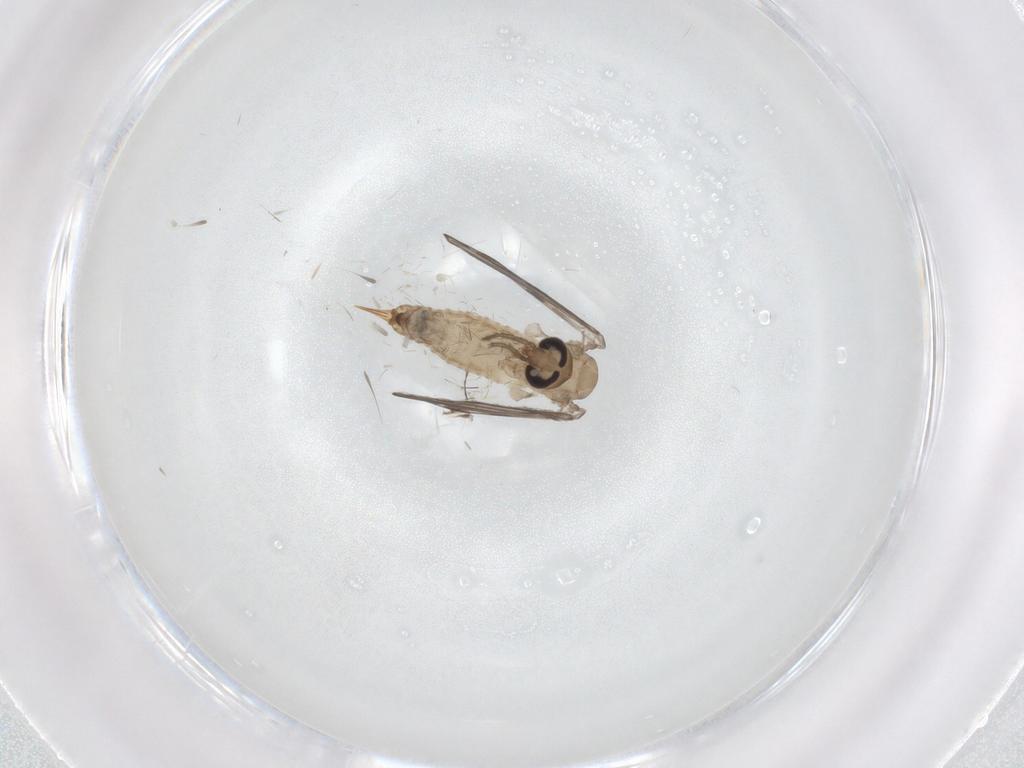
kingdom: Animalia
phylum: Arthropoda
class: Insecta
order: Diptera
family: Psychodidae
